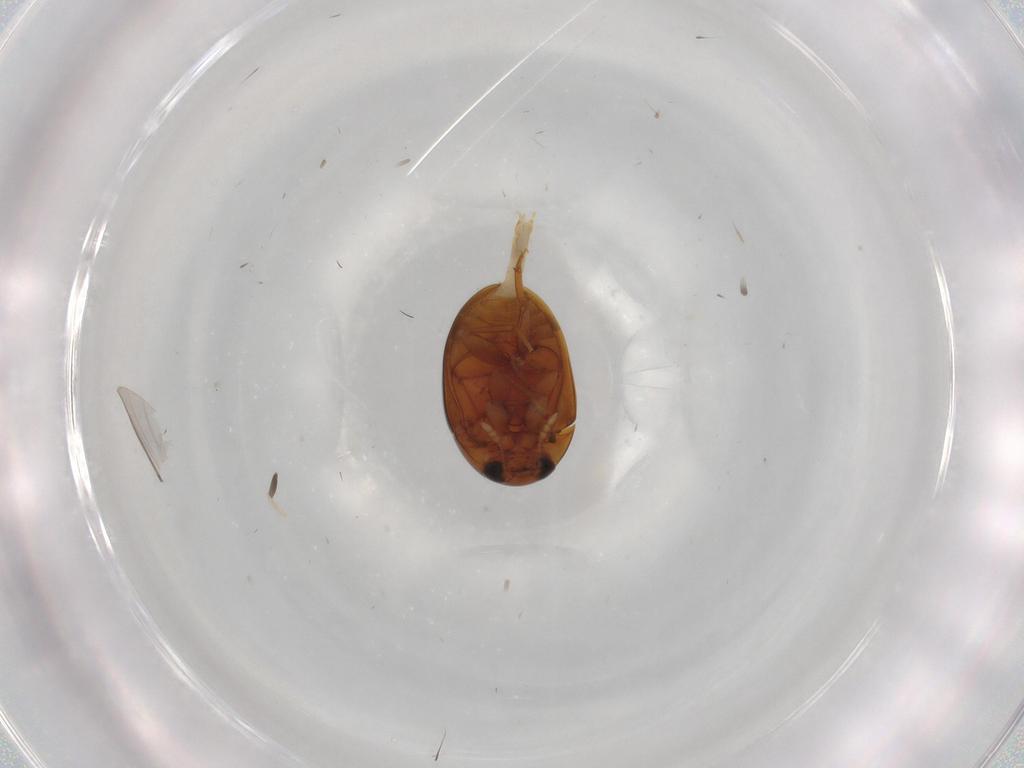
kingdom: Animalia
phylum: Arthropoda
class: Insecta
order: Coleoptera
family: Phalacridae
